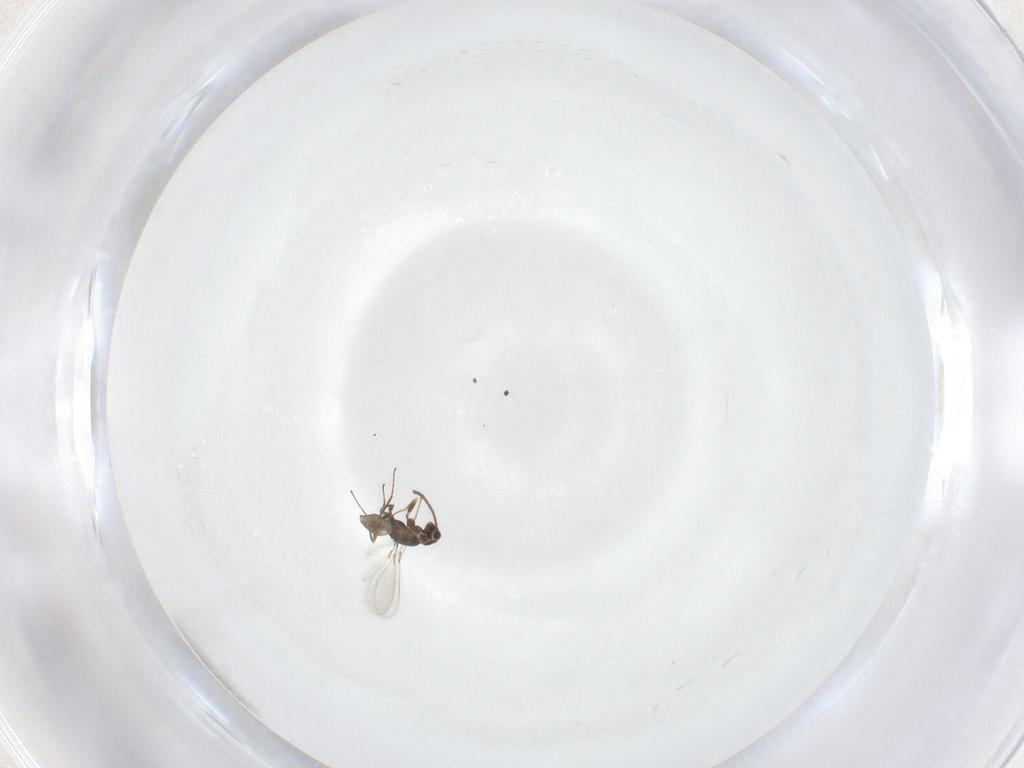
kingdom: Animalia
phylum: Arthropoda
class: Insecta
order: Hymenoptera
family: Mymaridae
